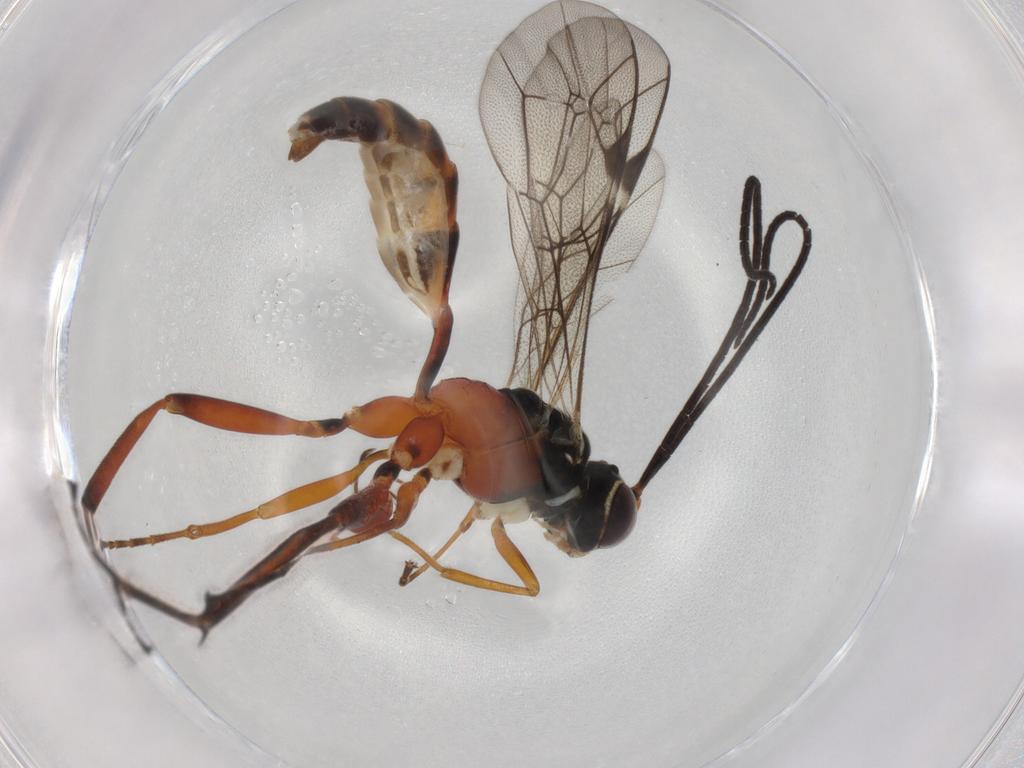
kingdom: Animalia
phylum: Arthropoda
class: Insecta
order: Hymenoptera
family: Ichneumonidae
